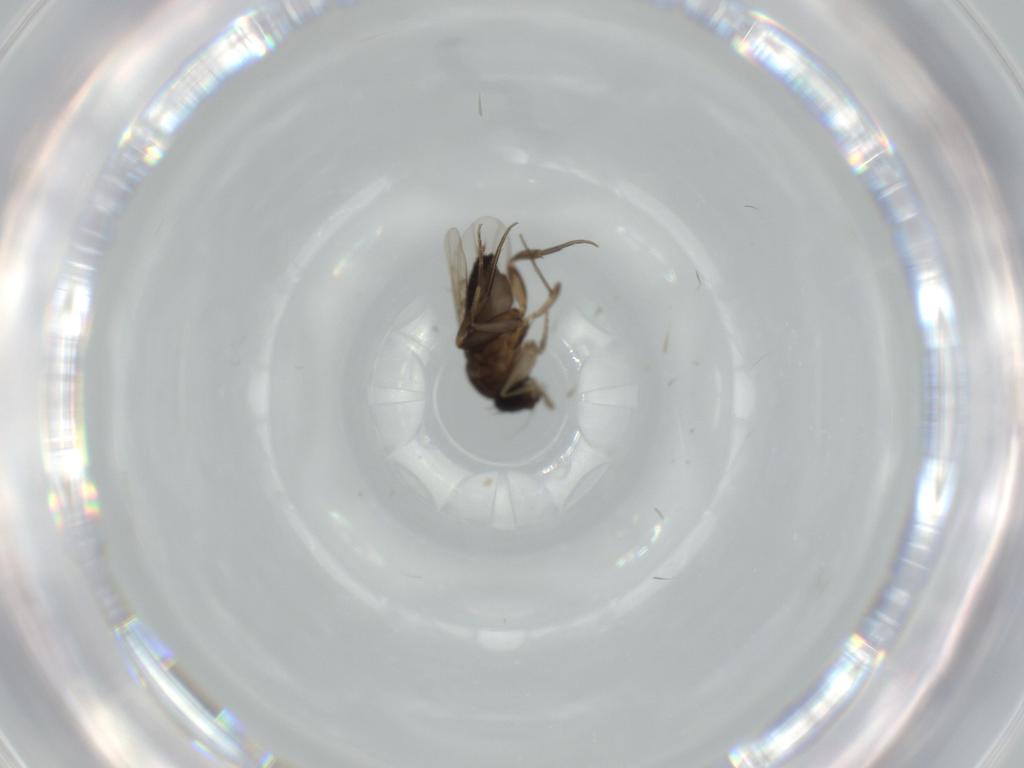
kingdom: Animalia
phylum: Arthropoda
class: Insecta
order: Diptera
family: Phoridae
